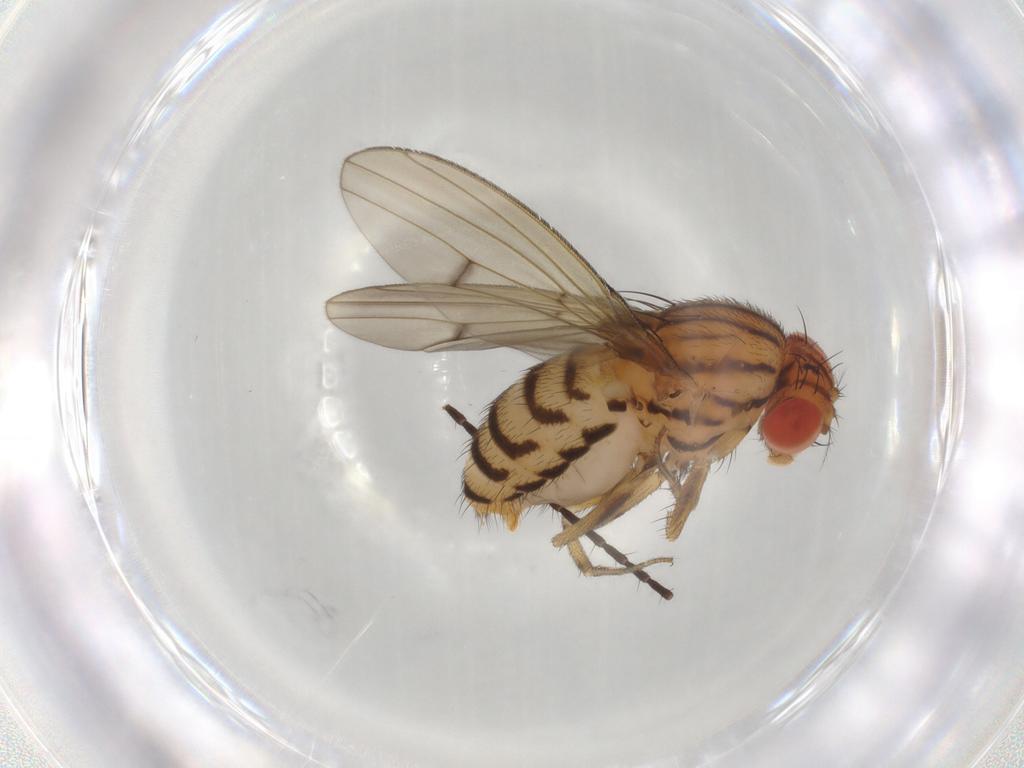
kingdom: Animalia
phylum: Arthropoda
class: Insecta
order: Diptera
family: Drosophilidae
